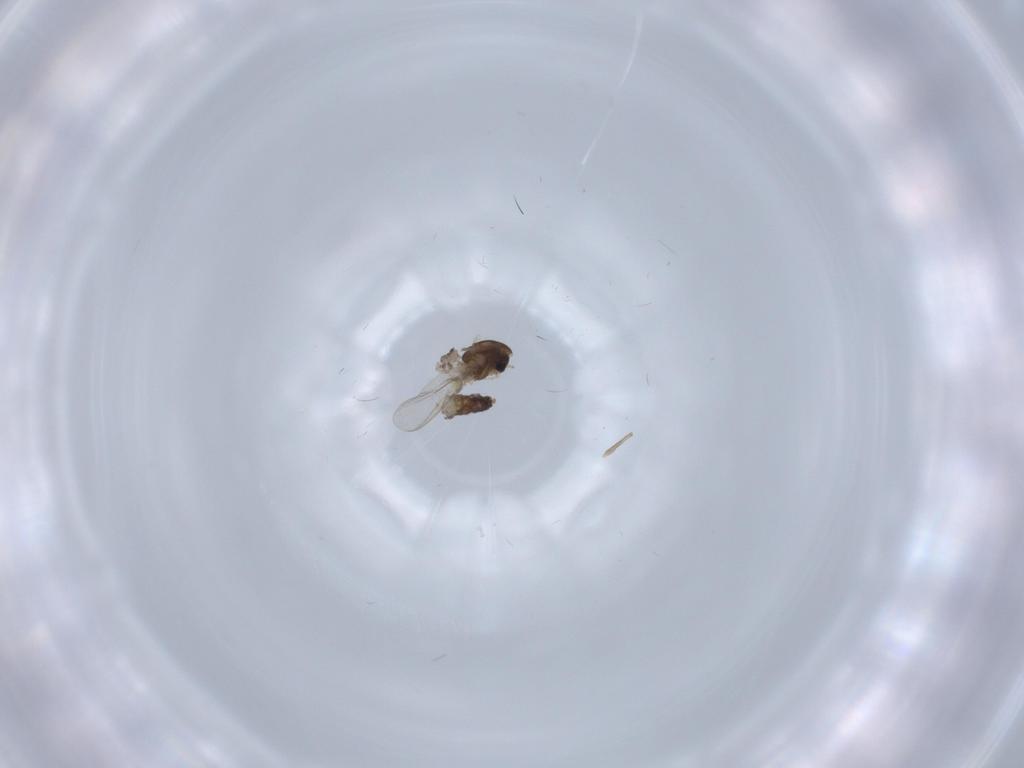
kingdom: Animalia
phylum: Arthropoda
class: Insecta
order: Diptera
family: Chironomidae
